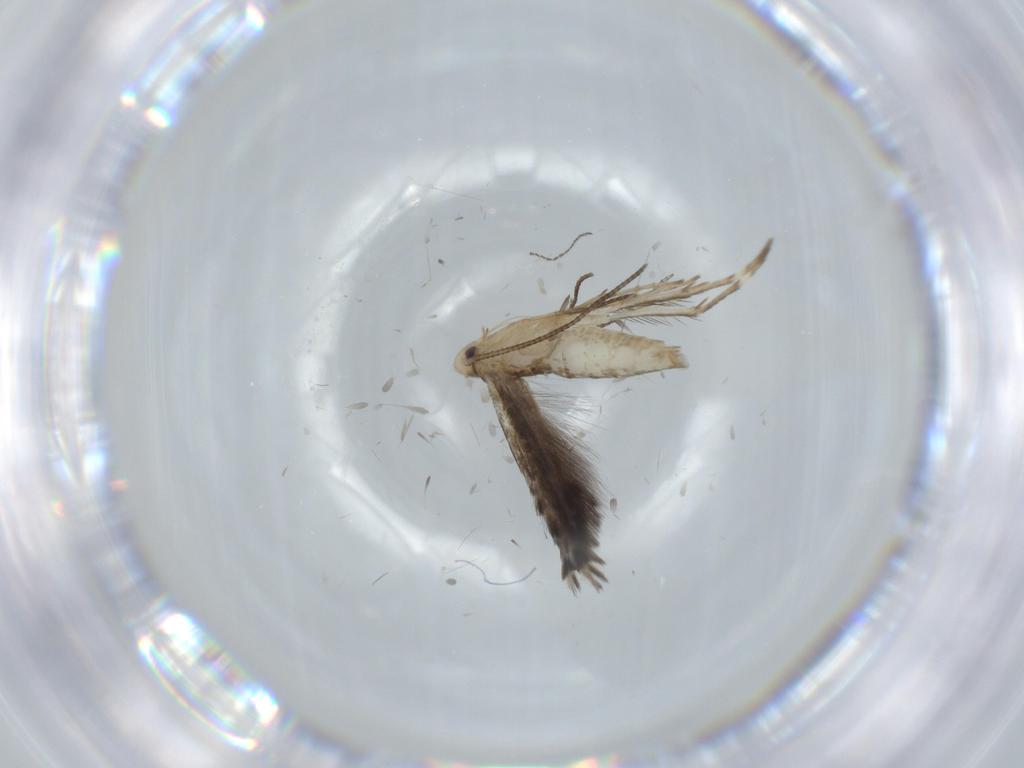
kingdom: Animalia
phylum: Arthropoda
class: Insecta
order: Lepidoptera
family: Gracillariidae
